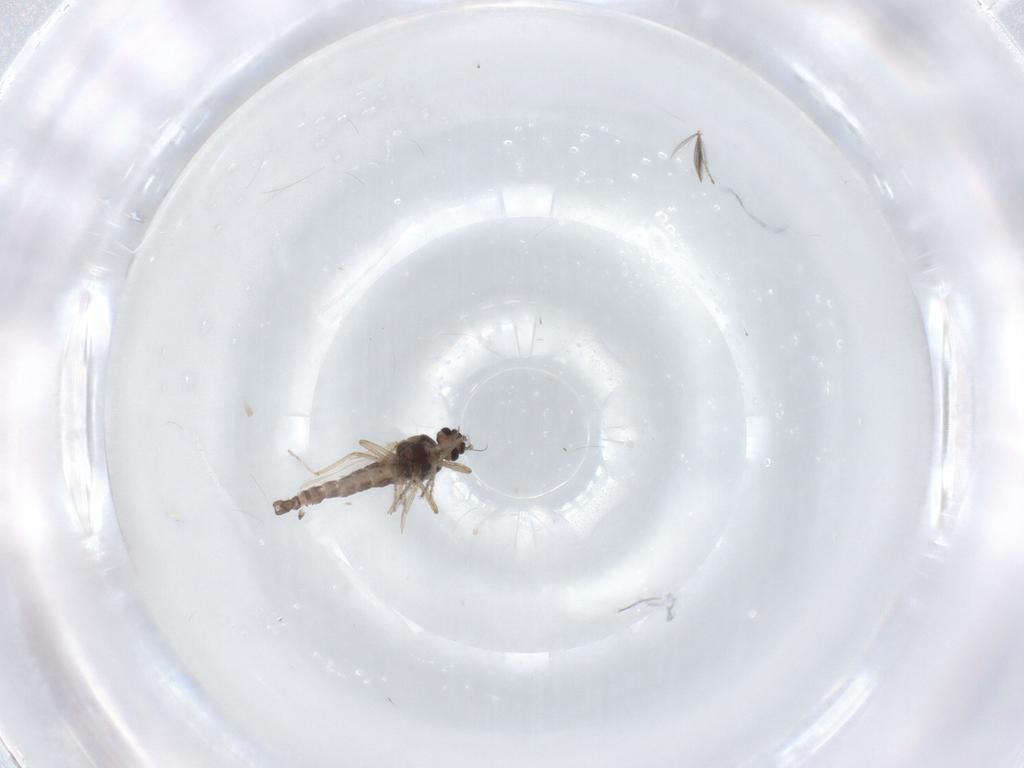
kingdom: Animalia
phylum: Arthropoda
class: Insecta
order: Diptera
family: Ceratopogonidae
